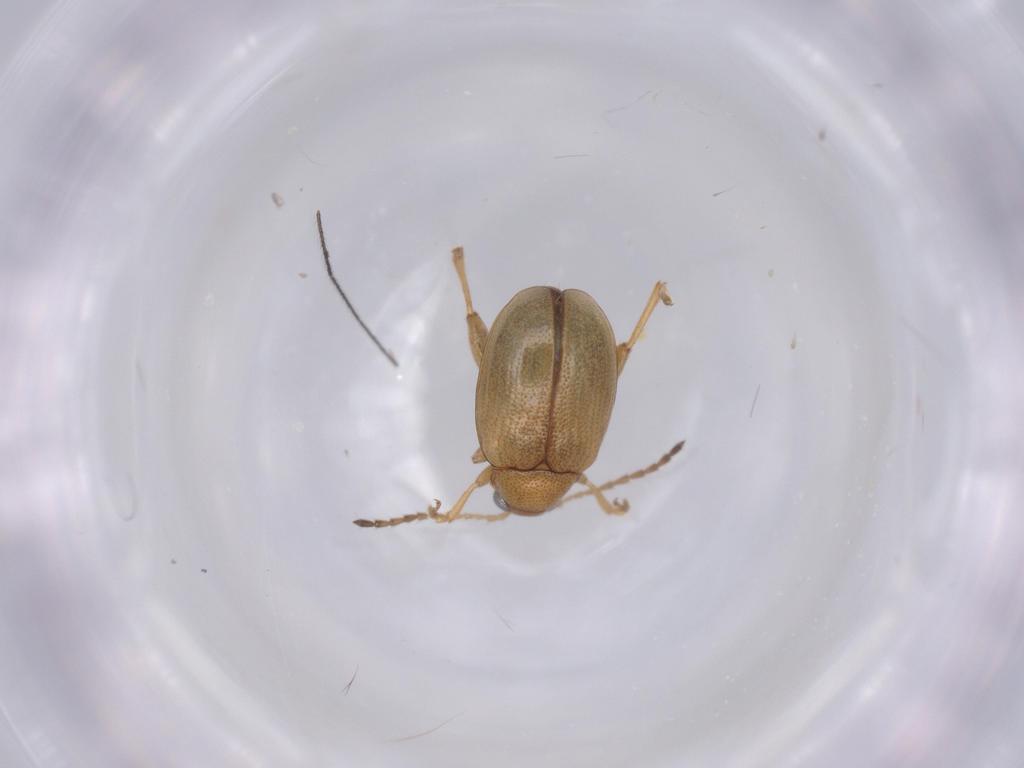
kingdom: Animalia
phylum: Arthropoda
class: Insecta
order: Coleoptera
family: Chrysomelidae
